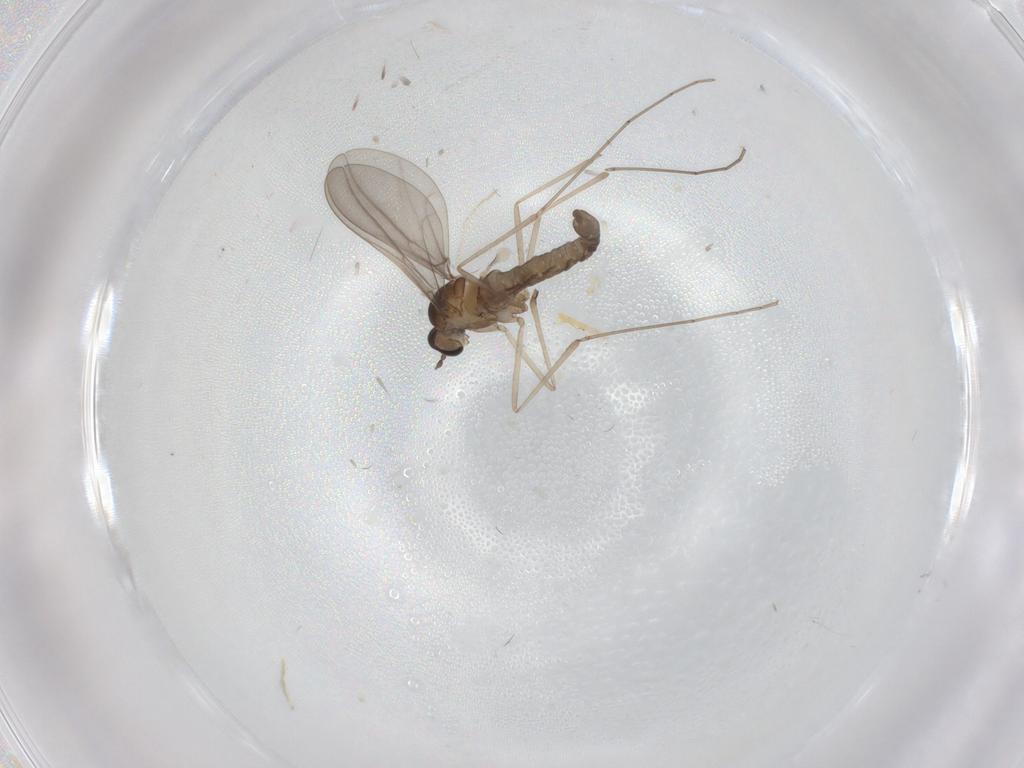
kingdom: Animalia
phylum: Arthropoda
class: Insecta
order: Diptera
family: Cecidomyiidae
